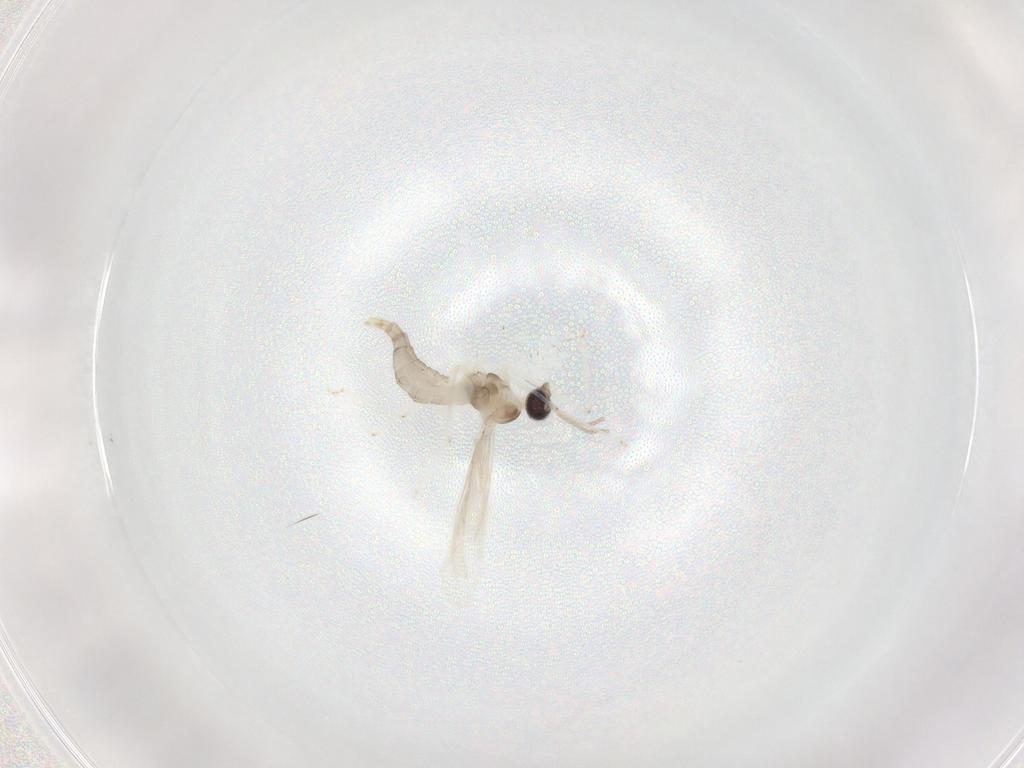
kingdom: Animalia
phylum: Arthropoda
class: Insecta
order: Diptera
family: Cecidomyiidae
